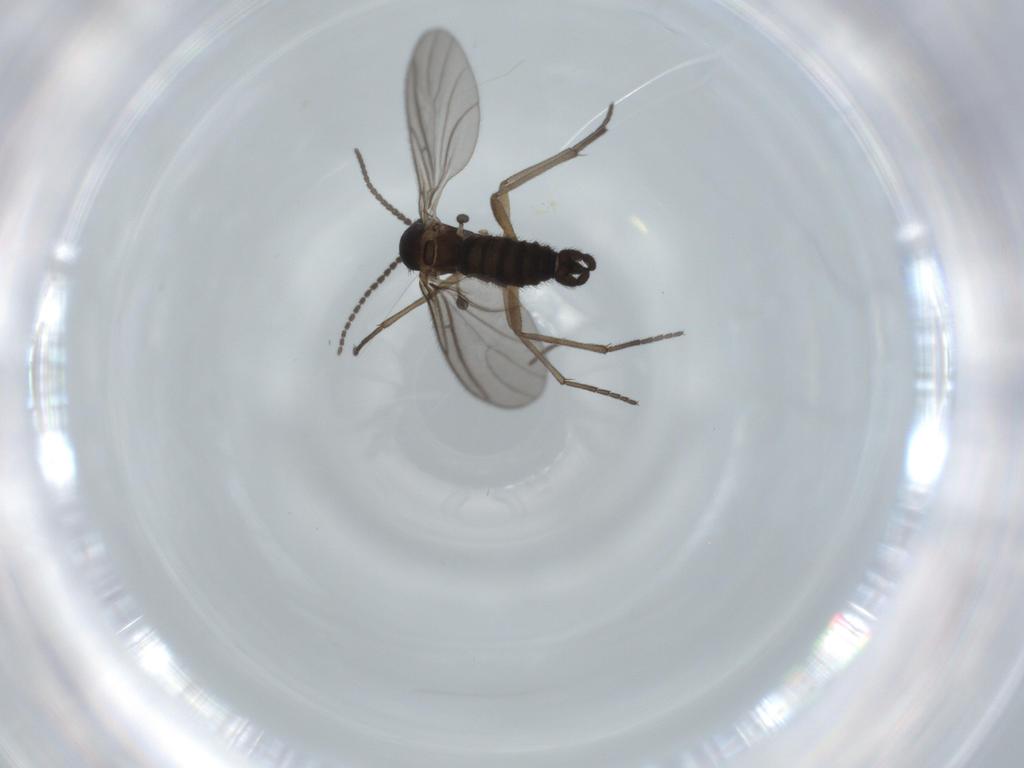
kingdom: Animalia
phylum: Arthropoda
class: Insecta
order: Diptera
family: Sciaridae
